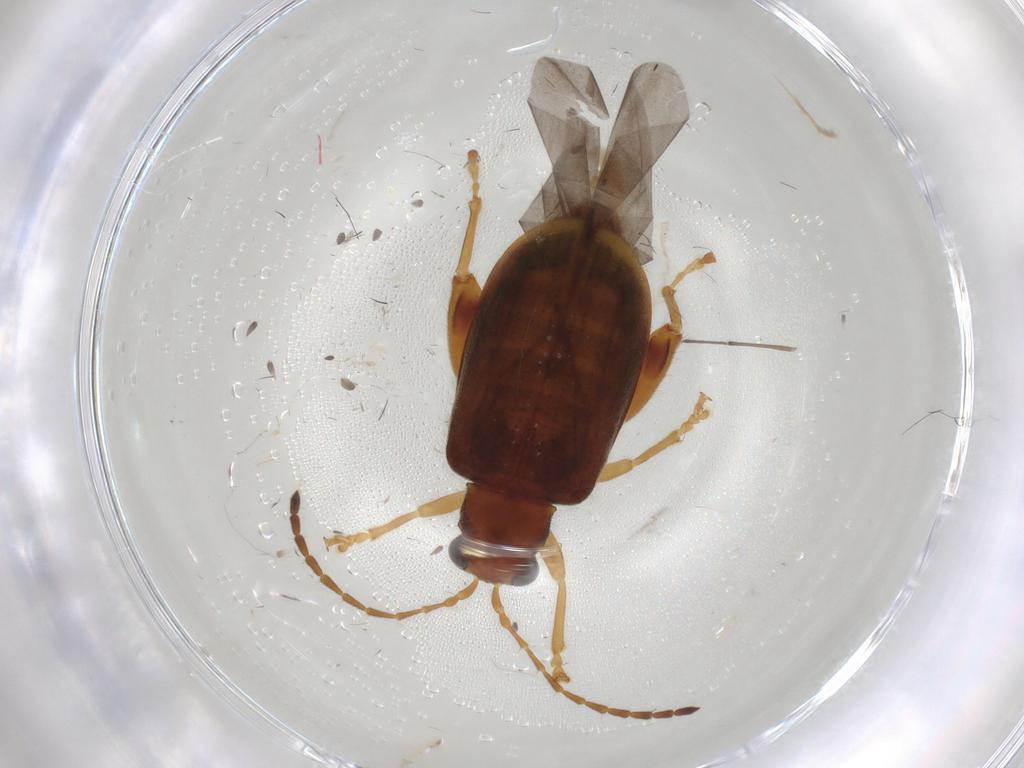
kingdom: Animalia
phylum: Arthropoda
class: Insecta
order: Coleoptera
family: Chrysomelidae
